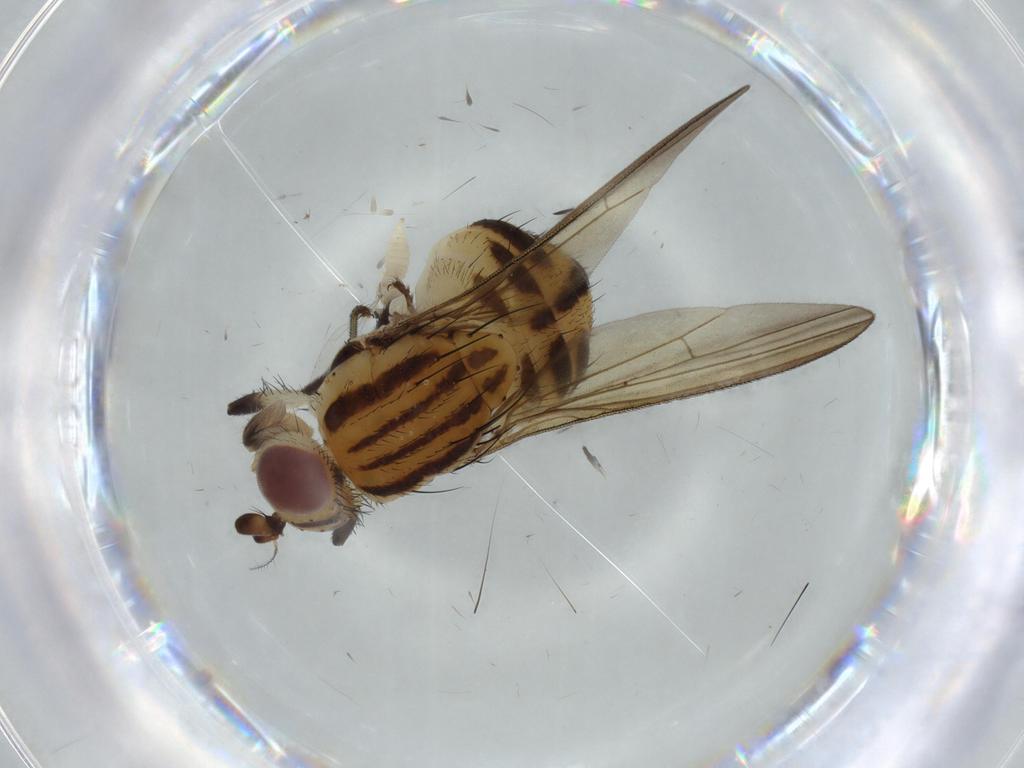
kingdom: Animalia
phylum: Arthropoda
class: Insecta
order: Diptera
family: Lauxaniidae
